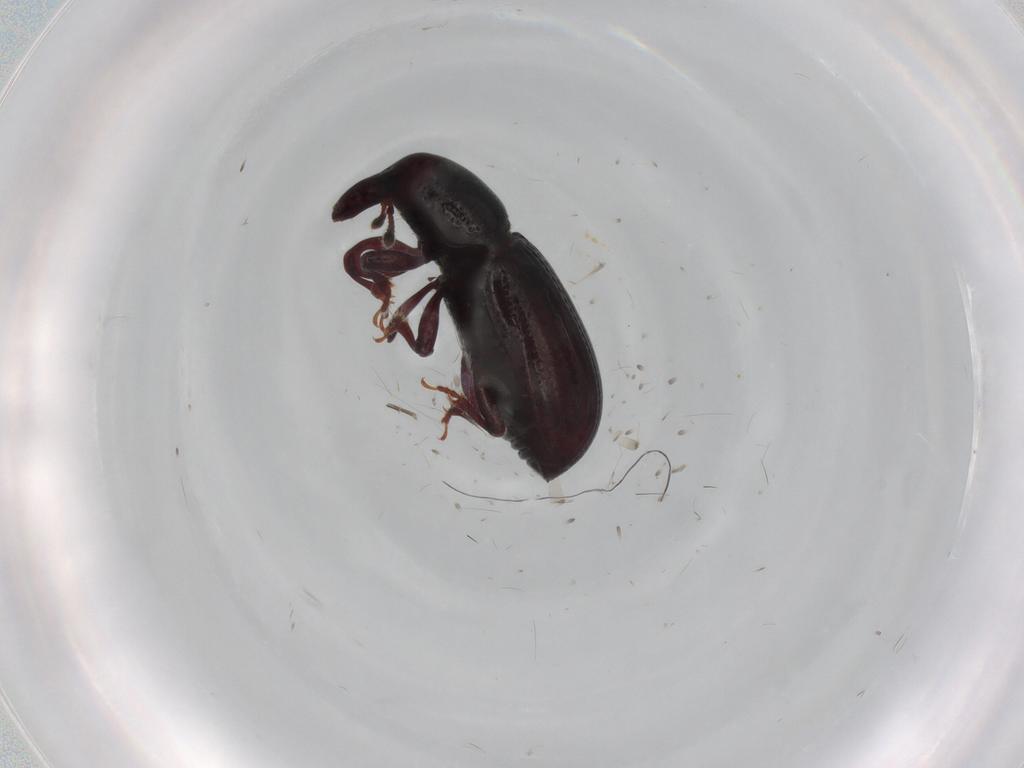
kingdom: Animalia
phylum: Arthropoda
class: Insecta
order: Coleoptera
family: Curculionidae
